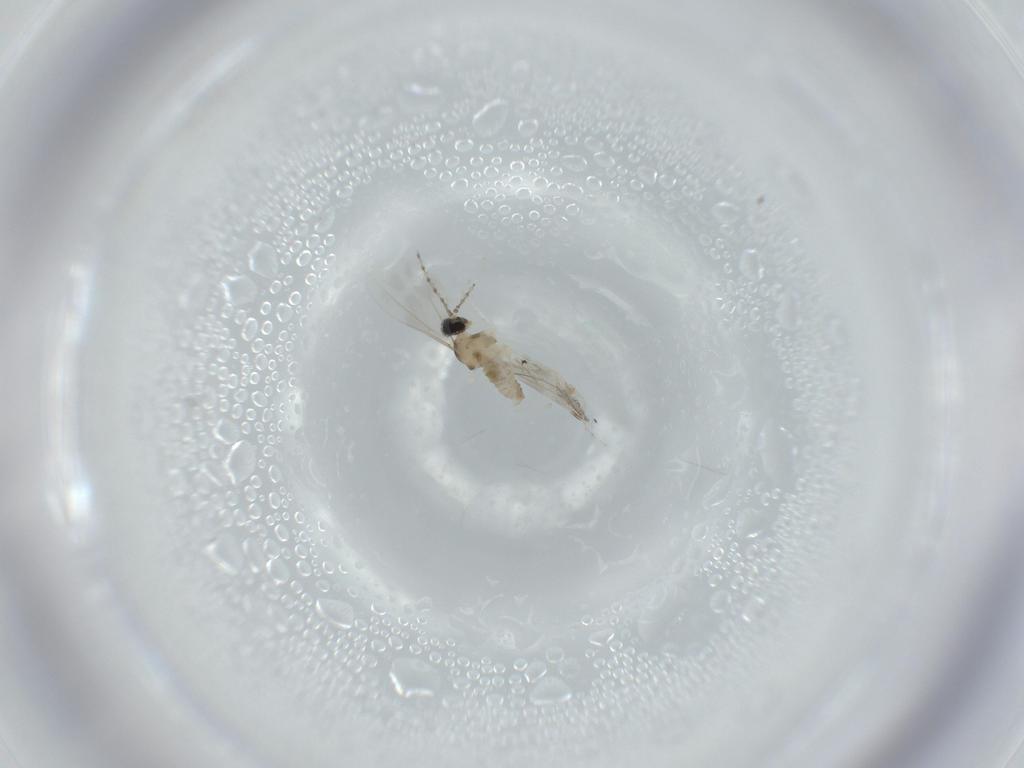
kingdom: Animalia
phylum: Arthropoda
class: Insecta
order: Diptera
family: Cecidomyiidae
